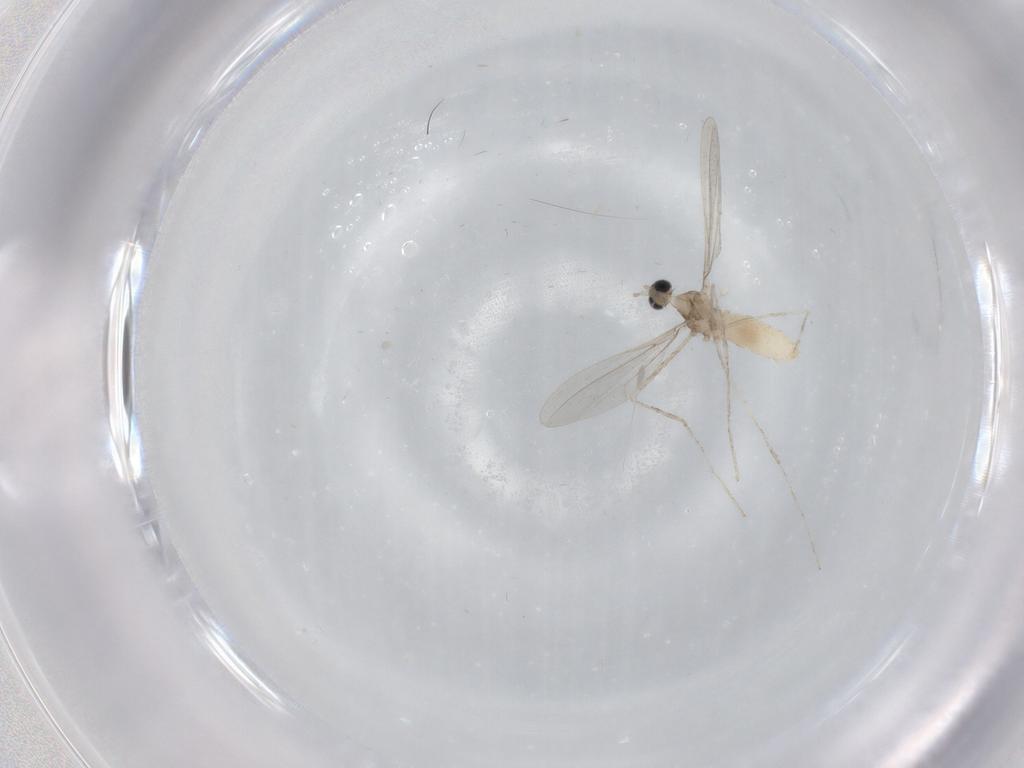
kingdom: Animalia
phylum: Arthropoda
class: Insecta
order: Diptera
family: Cecidomyiidae
